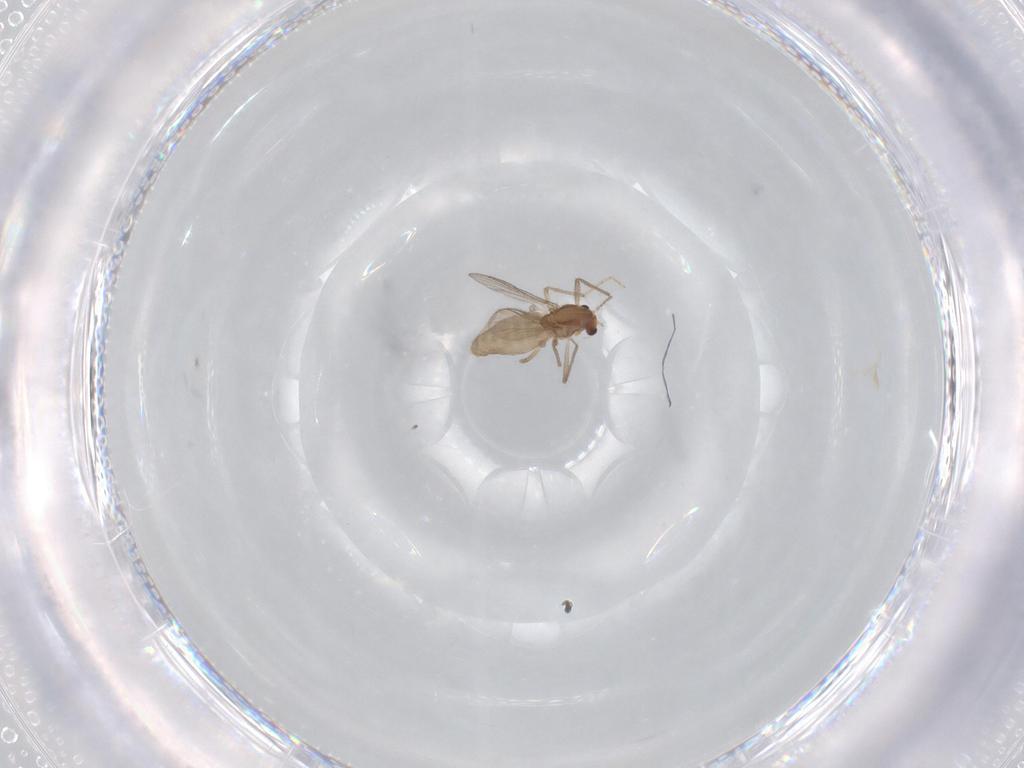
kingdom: Animalia
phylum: Arthropoda
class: Insecta
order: Diptera
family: Chironomidae
